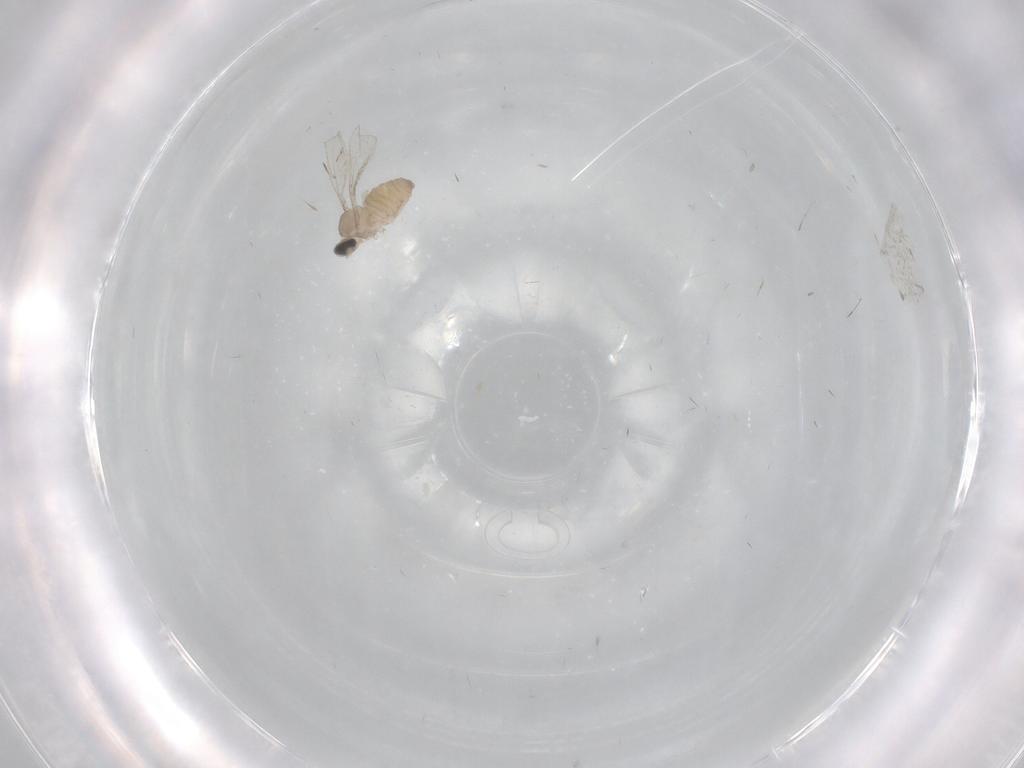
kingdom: Animalia
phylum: Arthropoda
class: Insecta
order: Diptera
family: Cecidomyiidae
